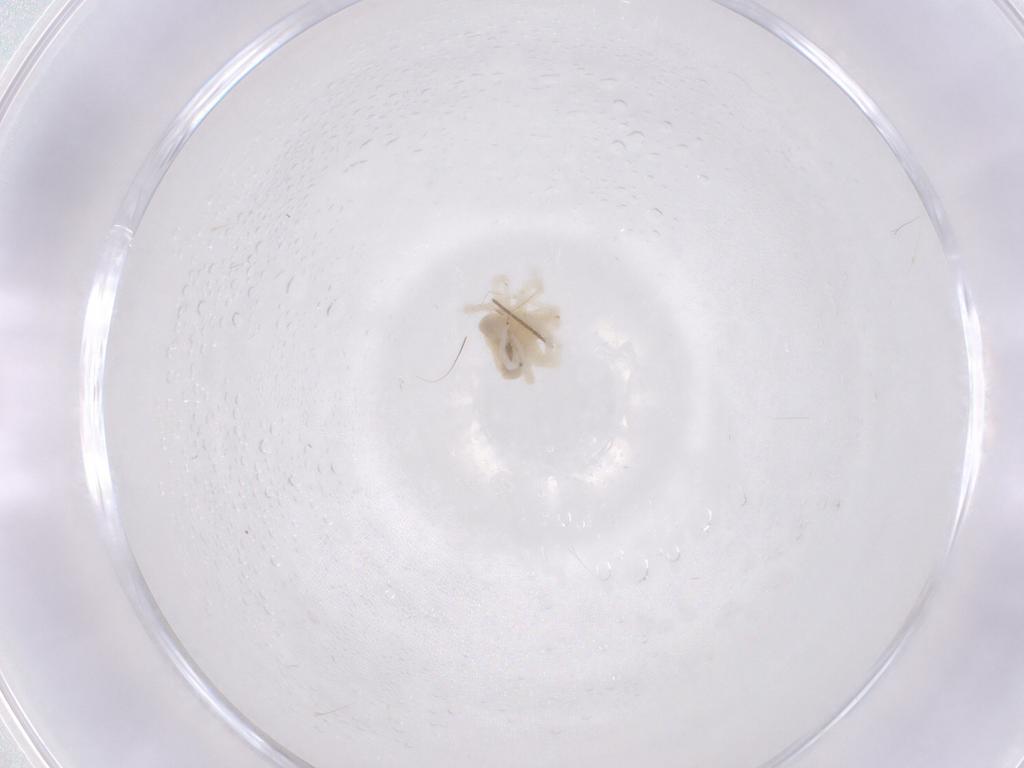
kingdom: Animalia
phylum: Arthropoda
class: Arachnida
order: Trombidiformes
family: Anystidae
